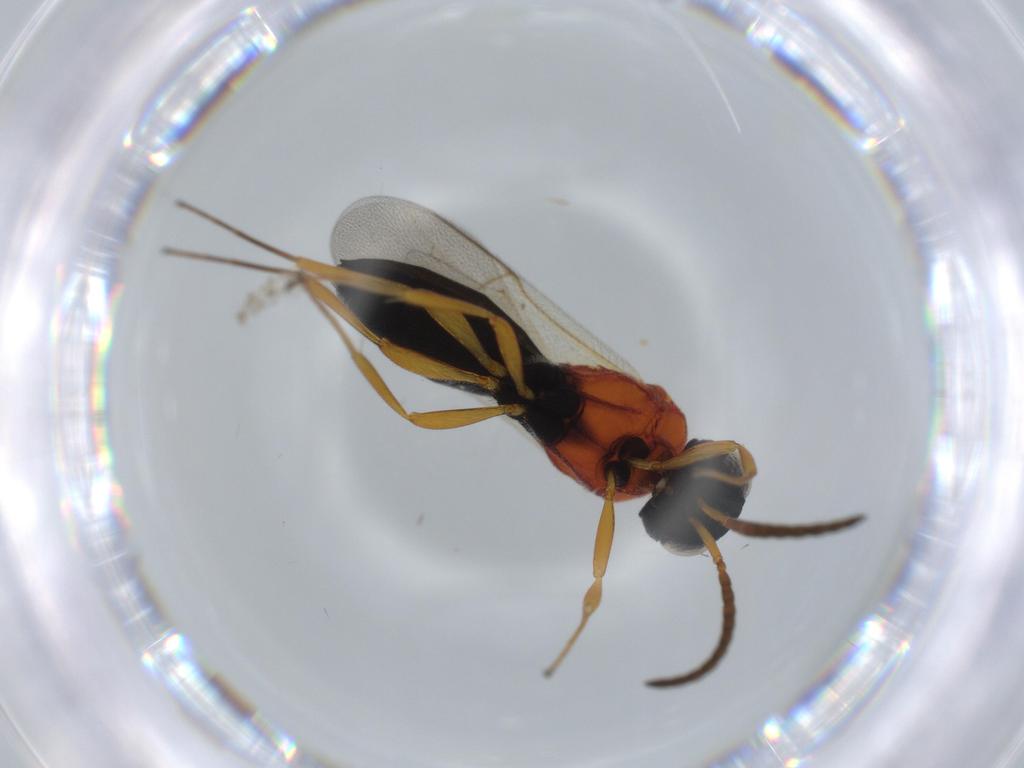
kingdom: Animalia
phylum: Arthropoda
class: Insecta
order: Hymenoptera
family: Scelionidae
